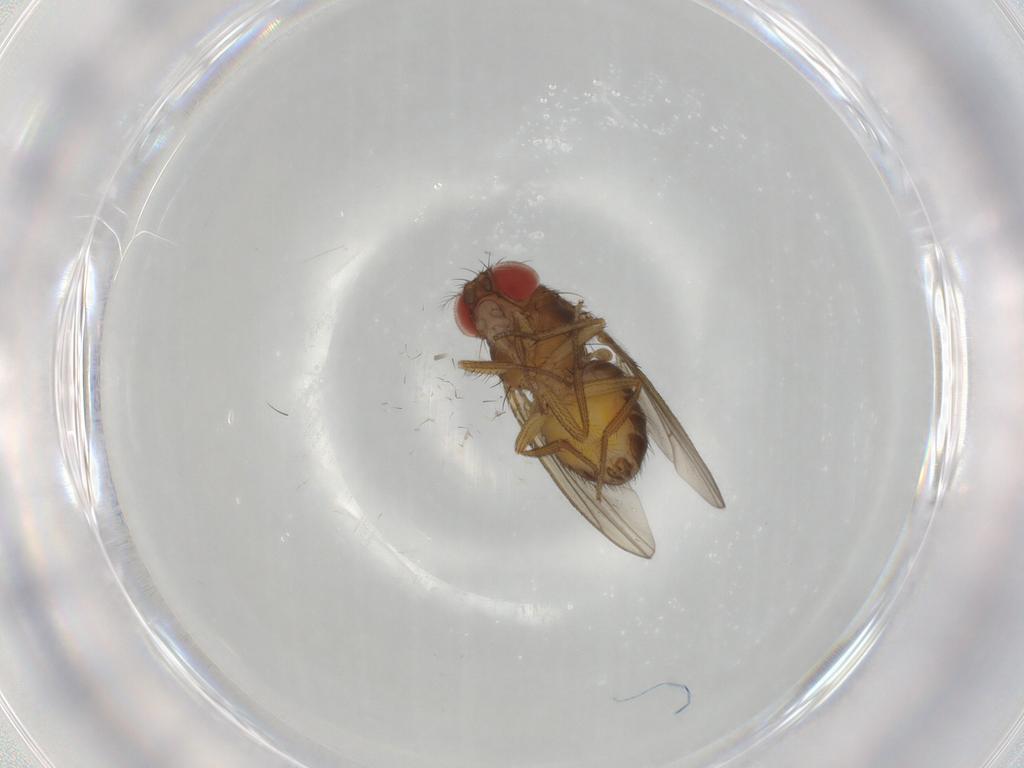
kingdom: Animalia
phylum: Arthropoda
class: Insecta
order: Diptera
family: Drosophilidae
